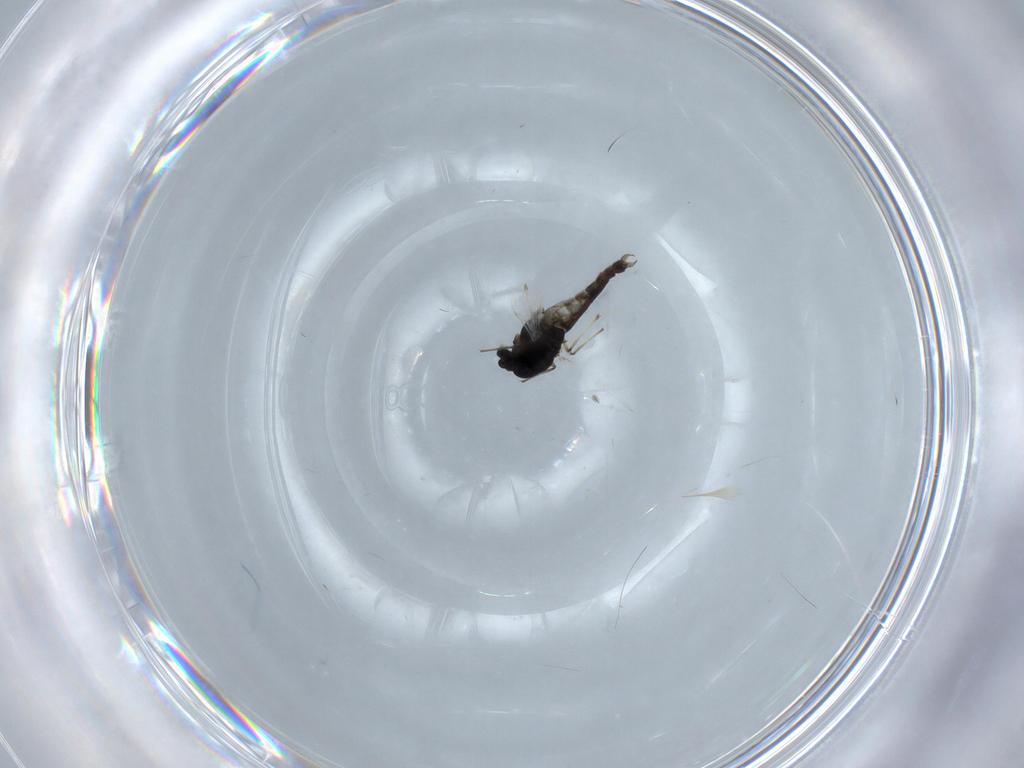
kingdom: Animalia
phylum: Arthropoda
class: Insecta
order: Diptera
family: Chironomidae
